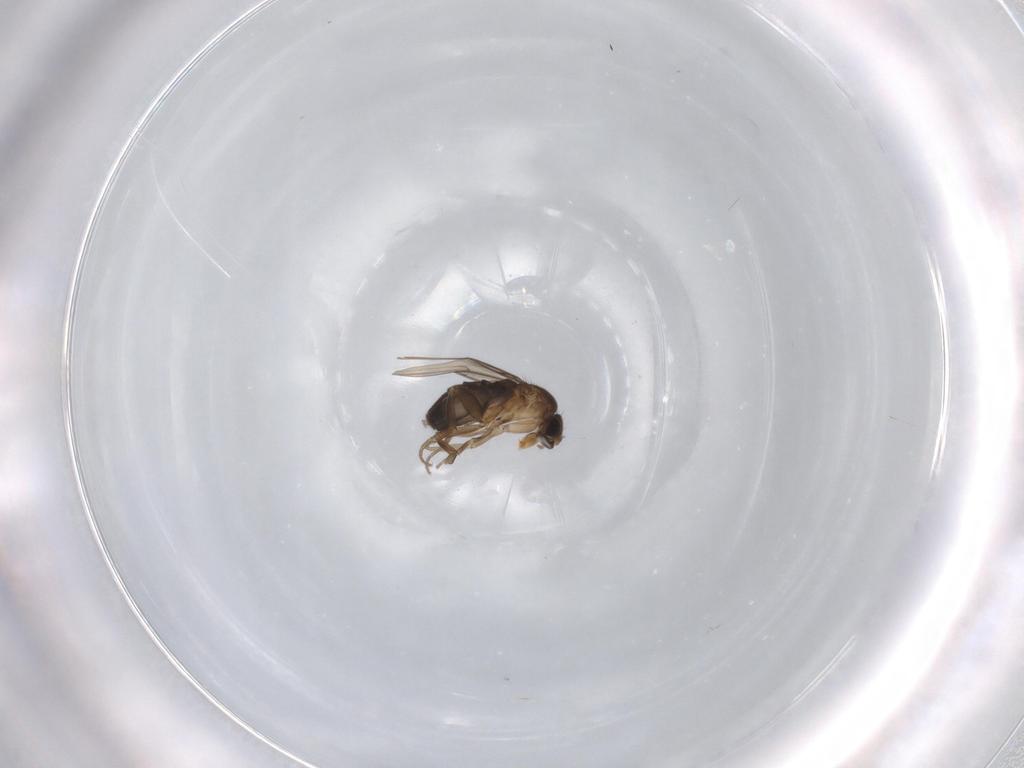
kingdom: Animalia
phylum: Arthropoda
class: Insecta
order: Diptera
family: Phoridae
